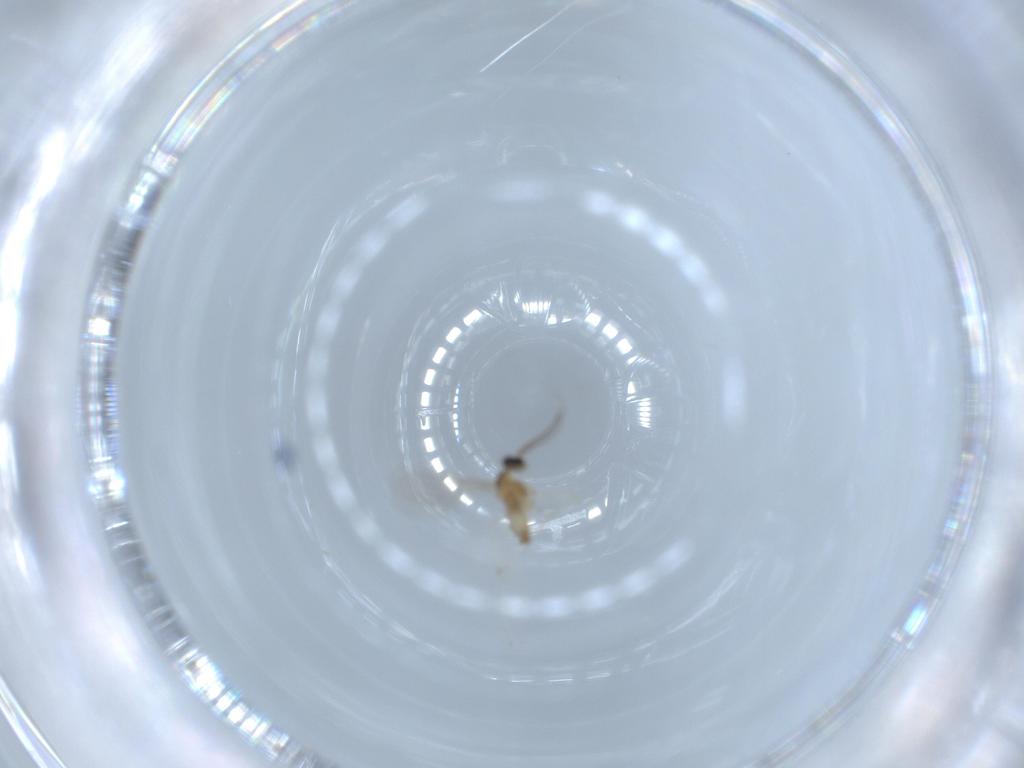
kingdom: Animalia
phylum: Arthropoda
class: Insecta
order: Diptera
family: Cecidomyiidae
